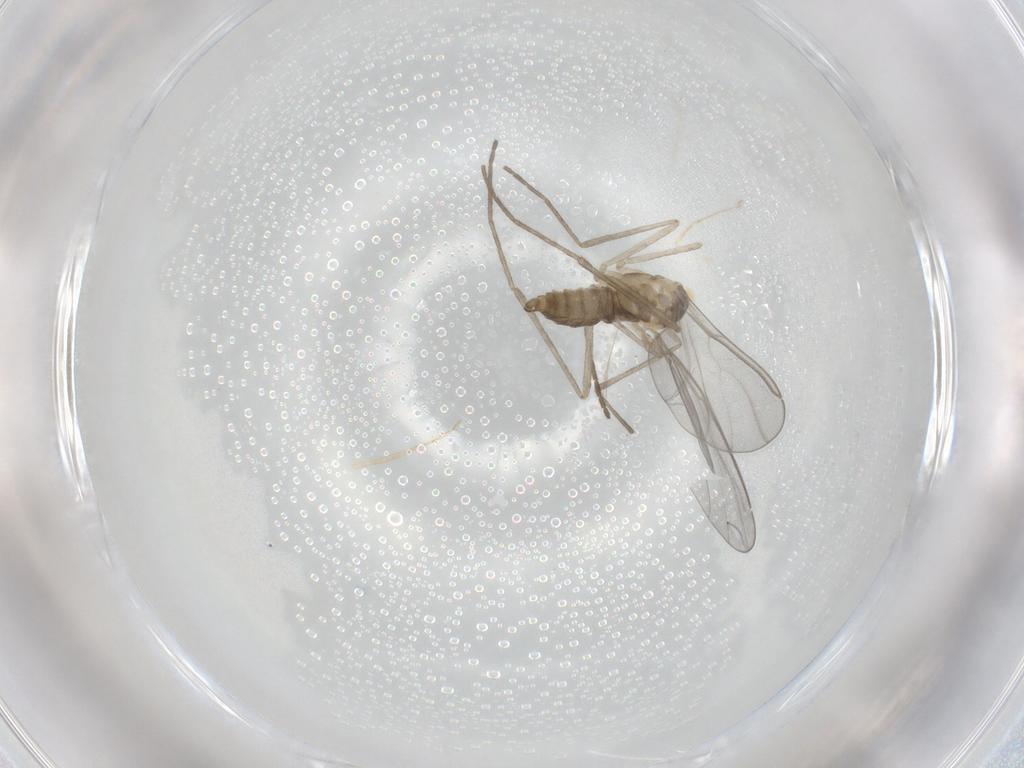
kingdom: Animalia
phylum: Arthropoda
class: Insecta
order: Diptera
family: Cecidomyiidae
